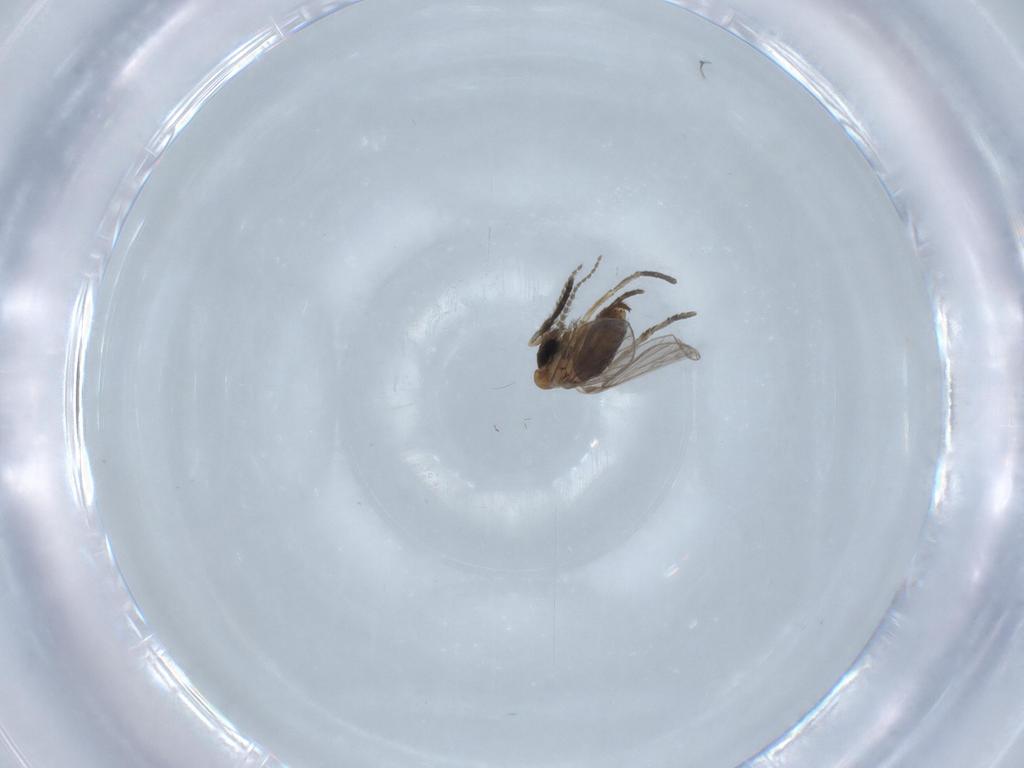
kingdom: Animalia
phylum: Arthropoda
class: Insecta
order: Diptera
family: Psychodidae
